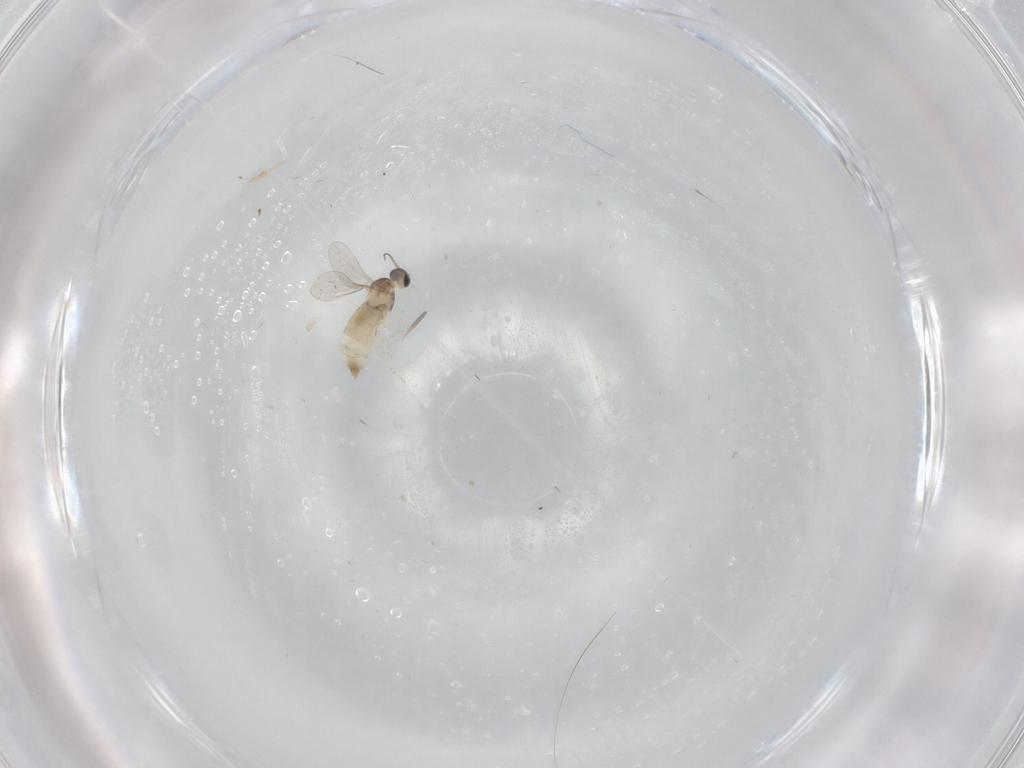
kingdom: Animalia
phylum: Arthropoda
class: Insecta
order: Diptera
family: Phoridae
